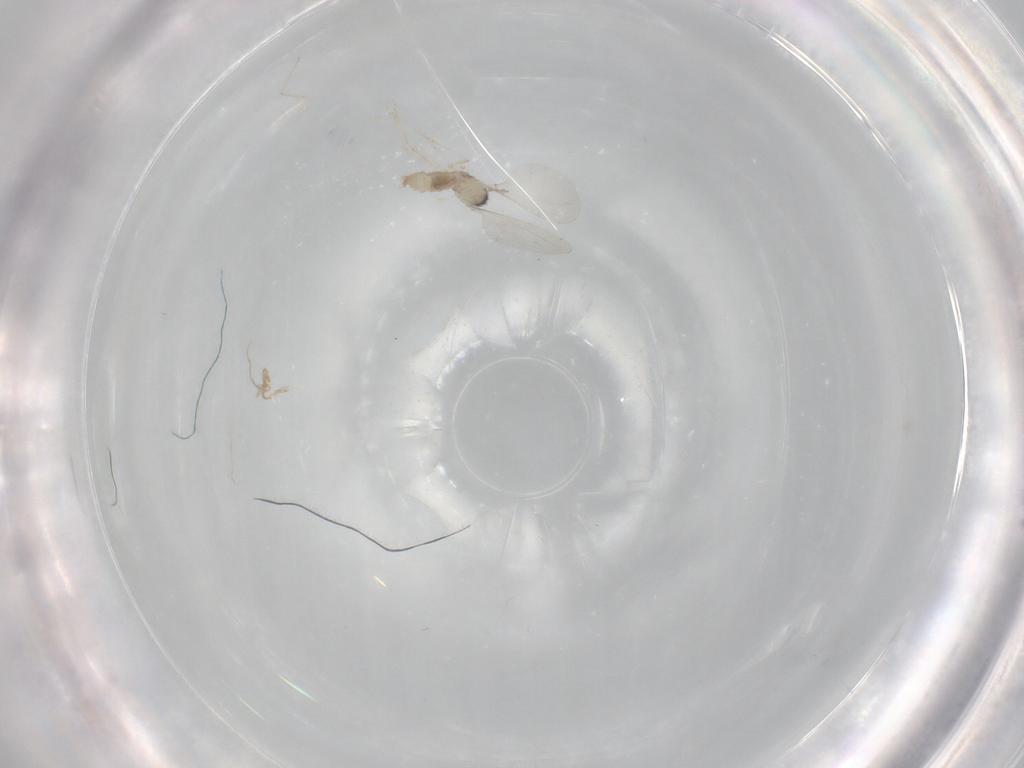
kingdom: Animalia
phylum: Arthropoda
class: Insecta
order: Diptera
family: Cecidomyiidae
